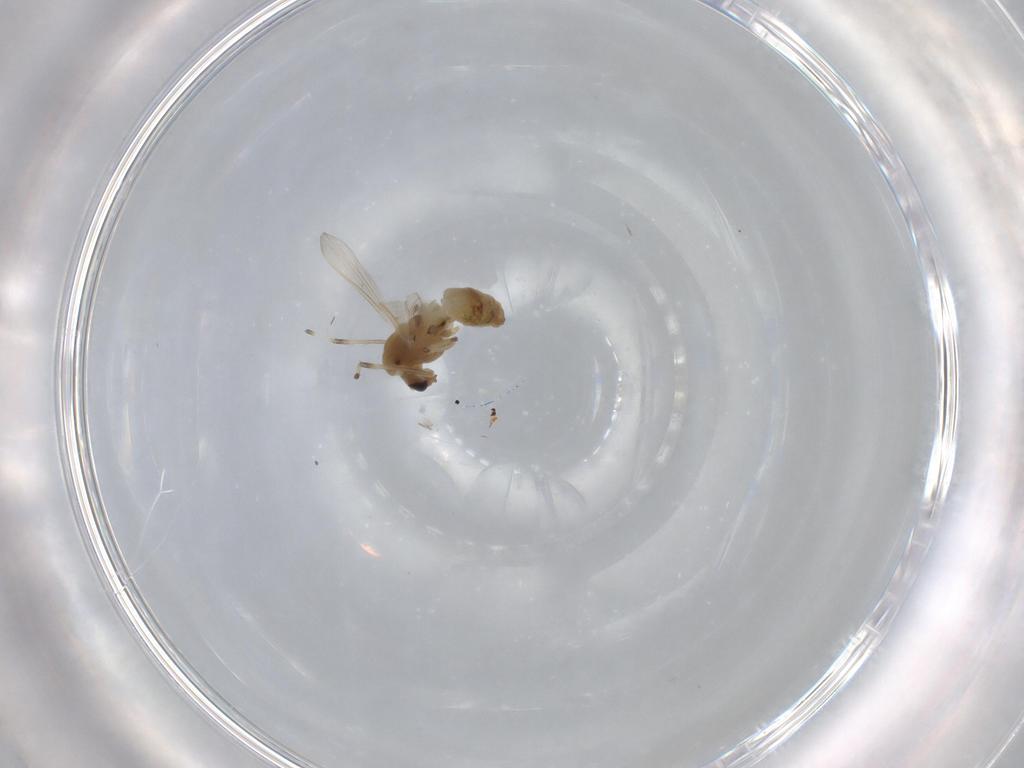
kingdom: Animalia
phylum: Arthropoda
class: Insecta
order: Diptera
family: Chironomidae
